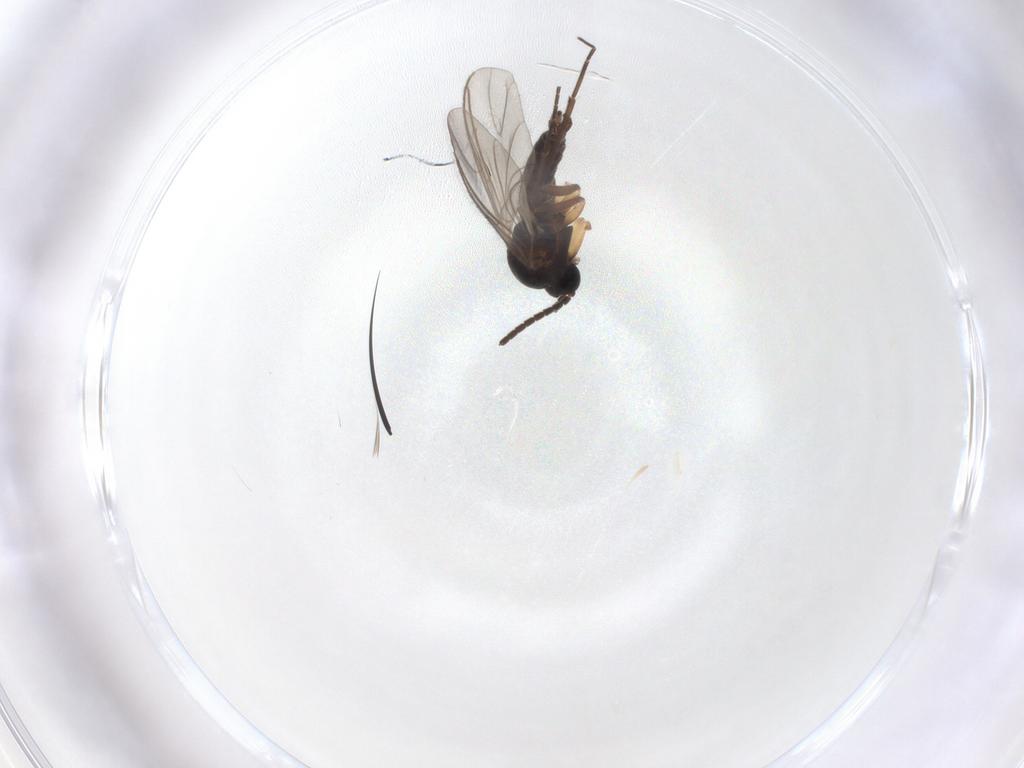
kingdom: Animalia
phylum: Arthropoda
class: Insecta
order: Diptera
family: Sciaridae
